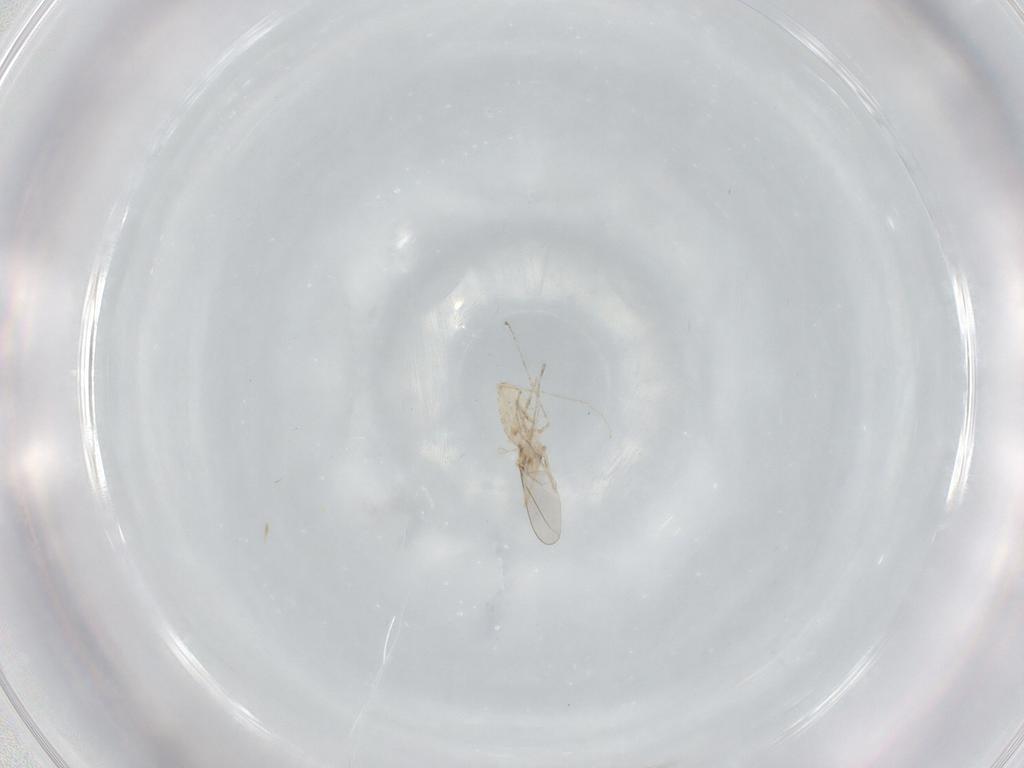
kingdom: Animalia
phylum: Arthropoda
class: Insecta
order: Diptera
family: Cecidomyiidae
